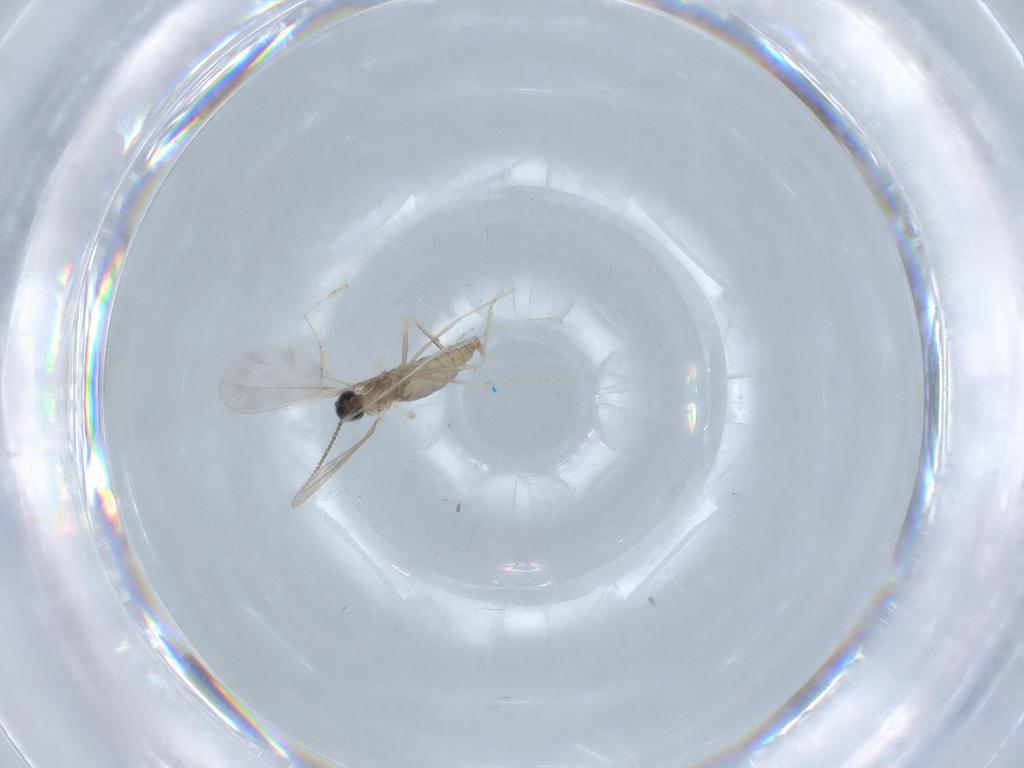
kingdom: Animalia
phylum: Arthropoda
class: Insecta
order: Diptera
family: Cecidomyiidae
